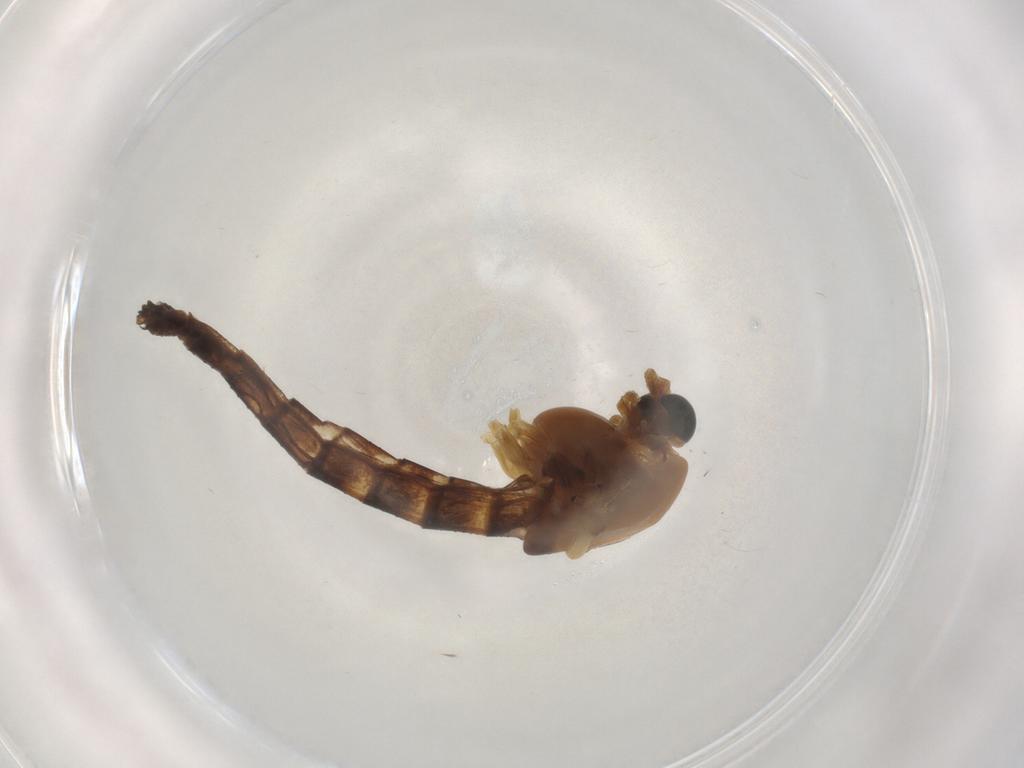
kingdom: Animalia
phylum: Arthropoda
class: Insecta
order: Diptera
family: Chironomidae
